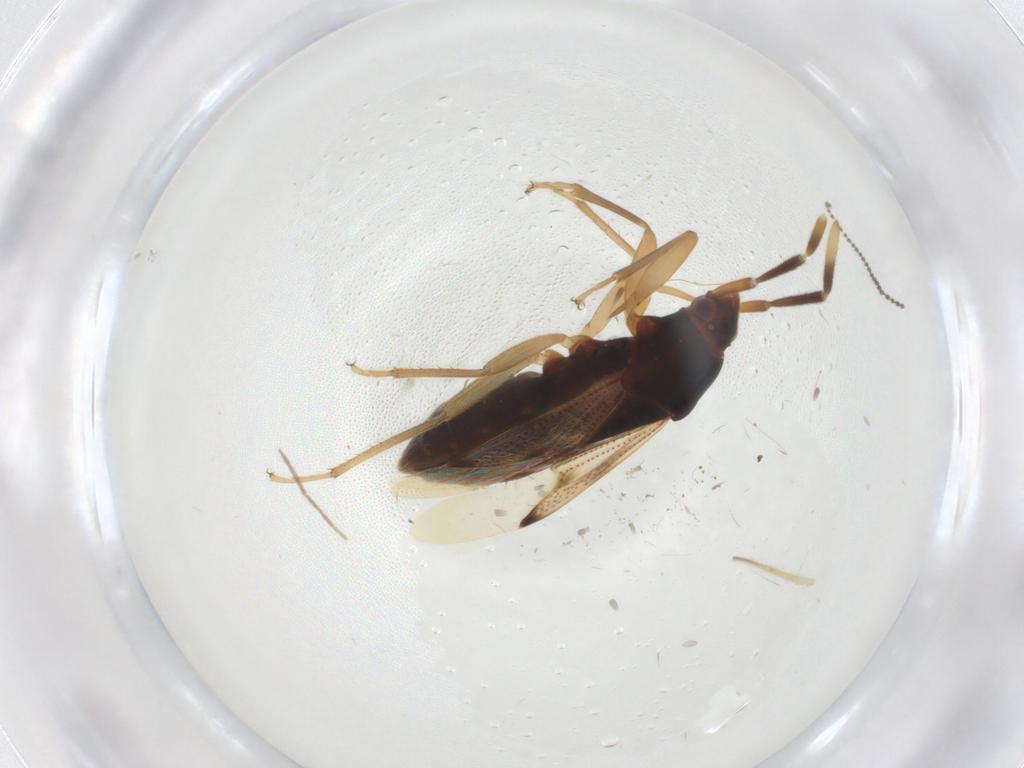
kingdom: Animalia
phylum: Arthropoda
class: Insecta
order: Hemiptera
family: Rhyparochromidae
